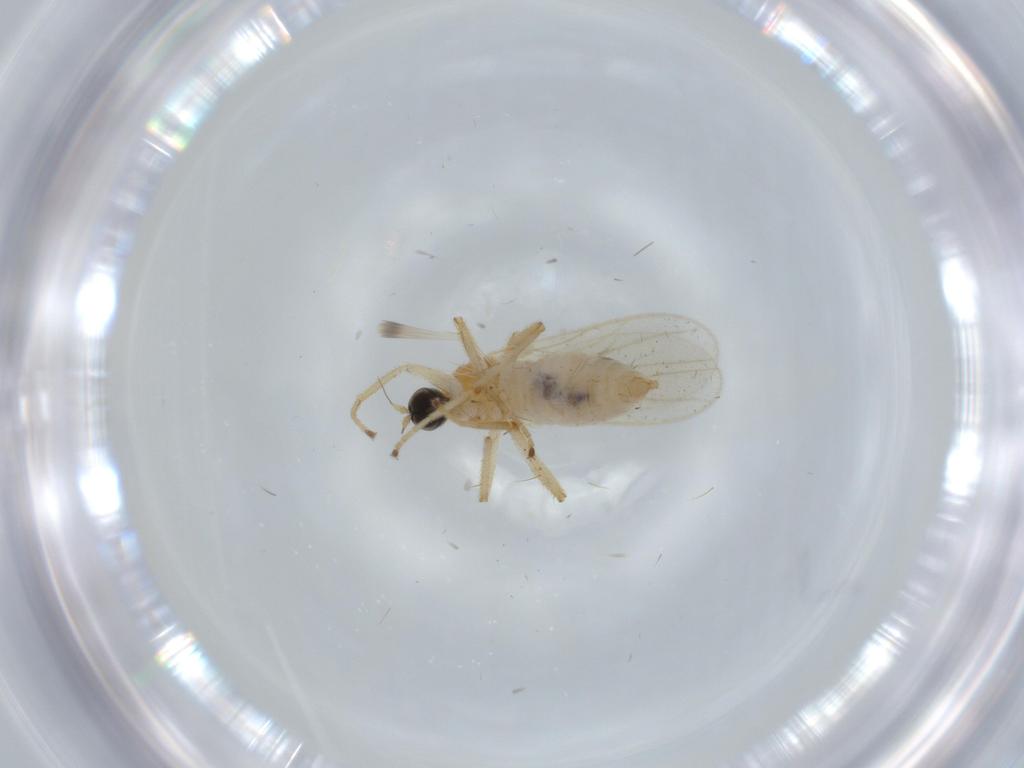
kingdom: Animalia
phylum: Arthropoda
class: Insecta
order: Diptera
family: Hybotidae
